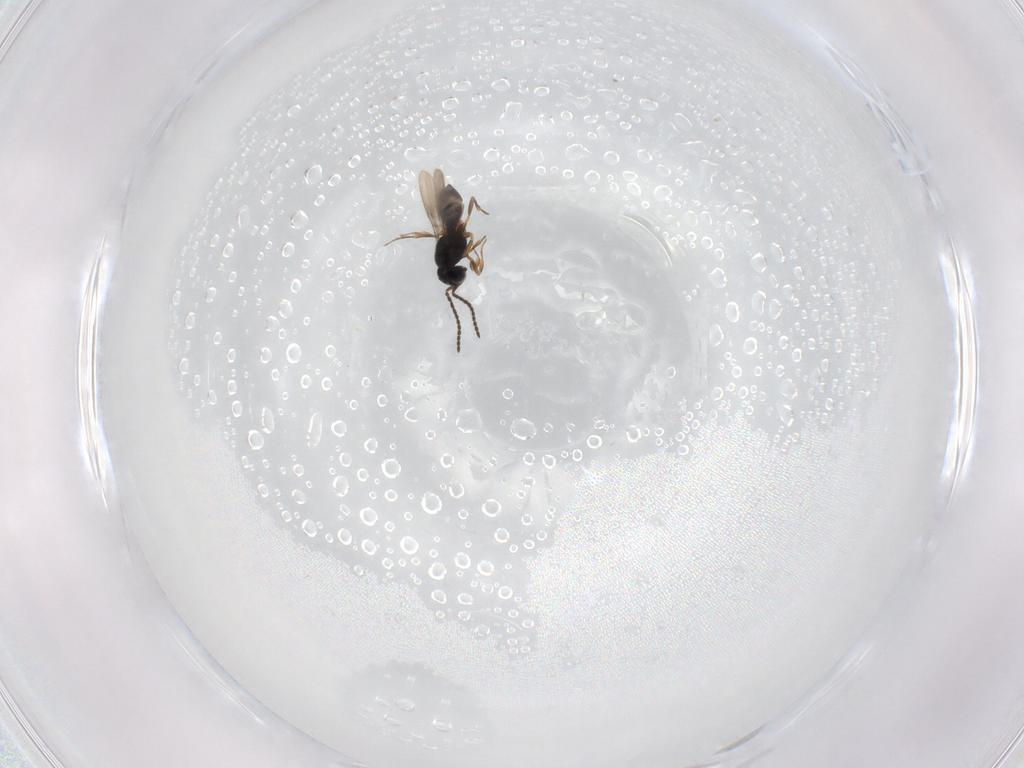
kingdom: Animalia
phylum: Arthropoda
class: Insecta
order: Hymenoptera
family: Scelionidae
